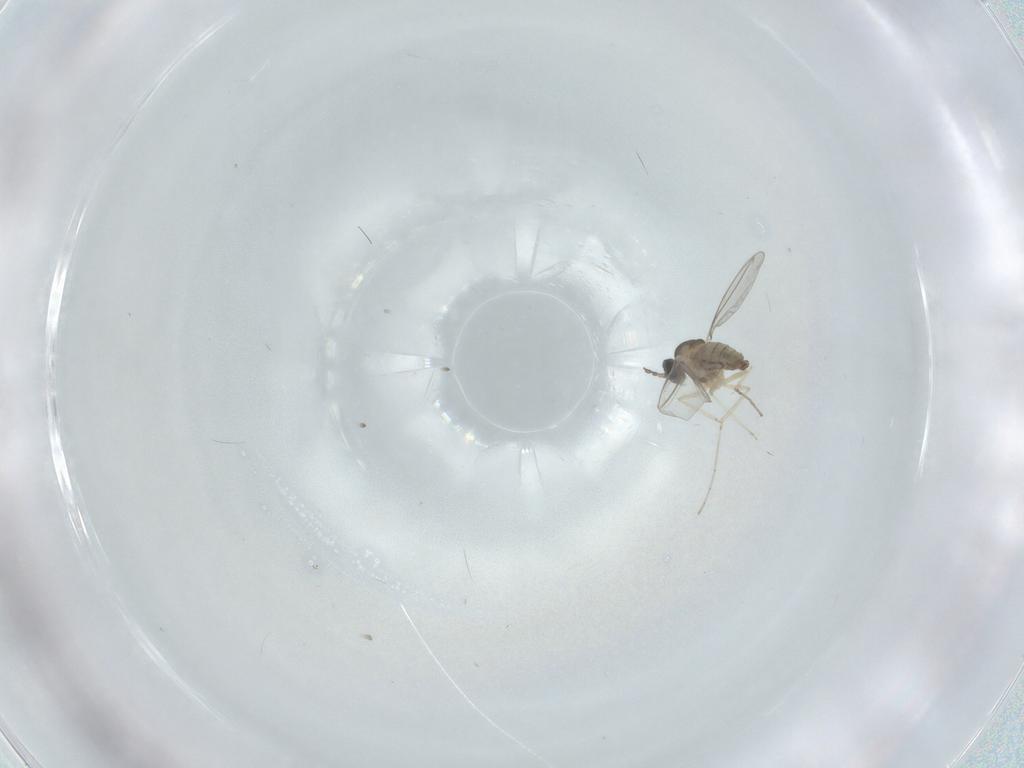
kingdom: Animalia
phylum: Arthropoda
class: Insecta
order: Diptera
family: Cecidomyiidae
